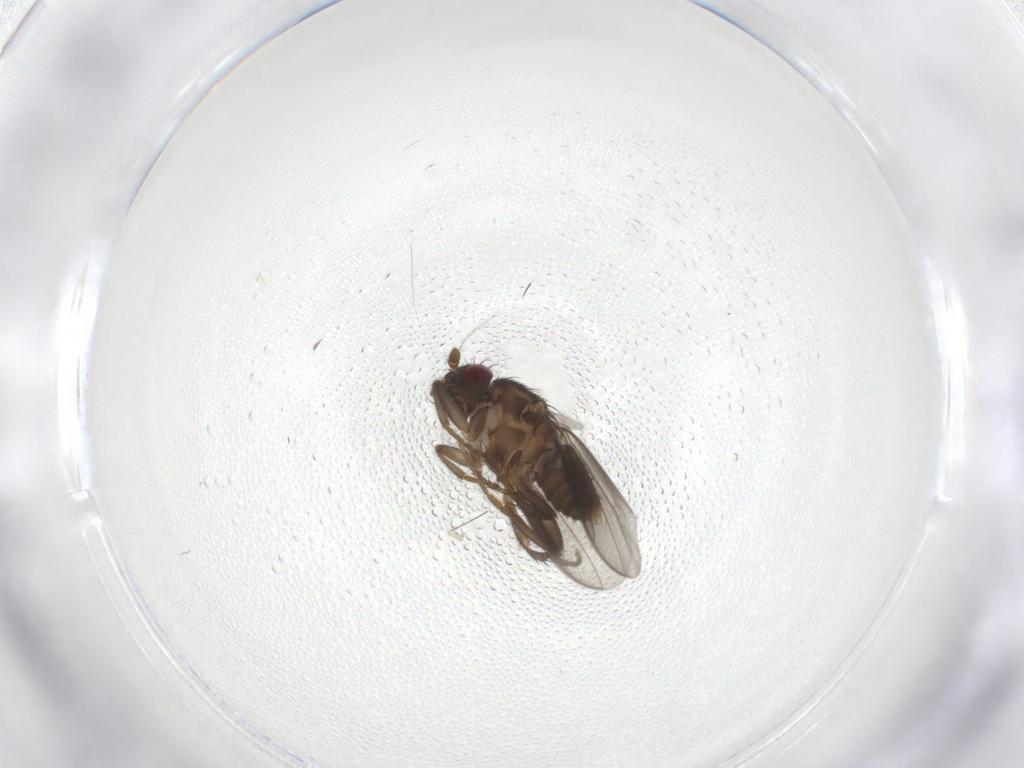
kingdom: Animalia
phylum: Arthropoda
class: Insecta
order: Diptera
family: Sphaeroceridae
